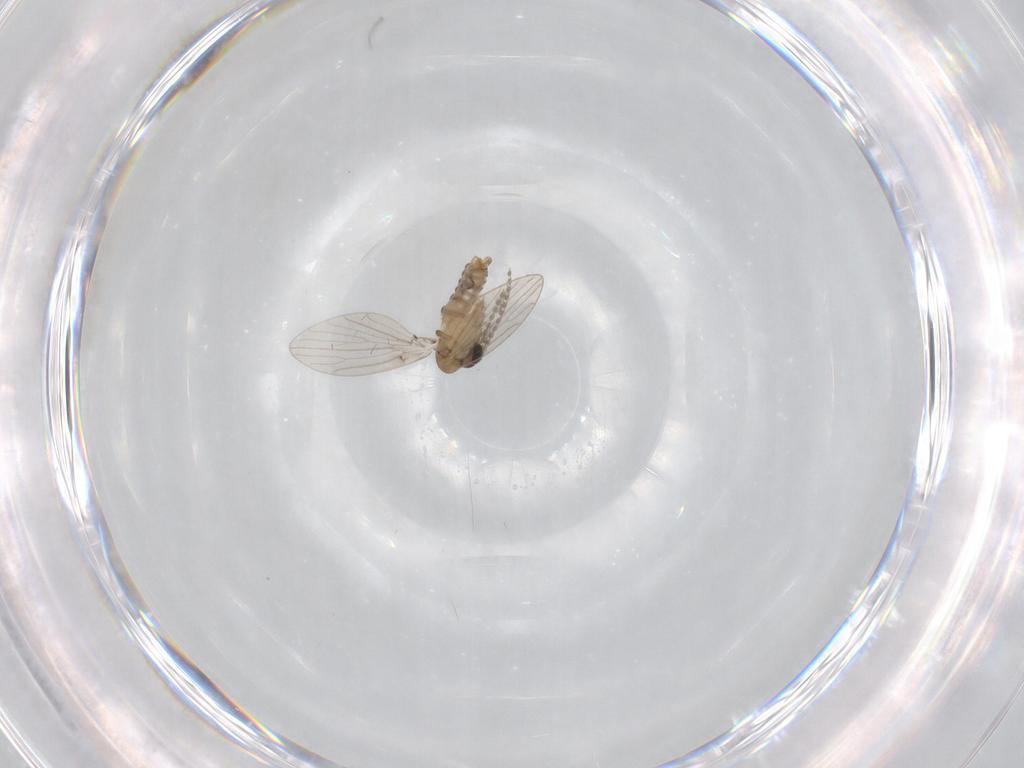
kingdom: Animalia
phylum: Arthropoda
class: Insecta
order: Diptera
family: Psychodidae
